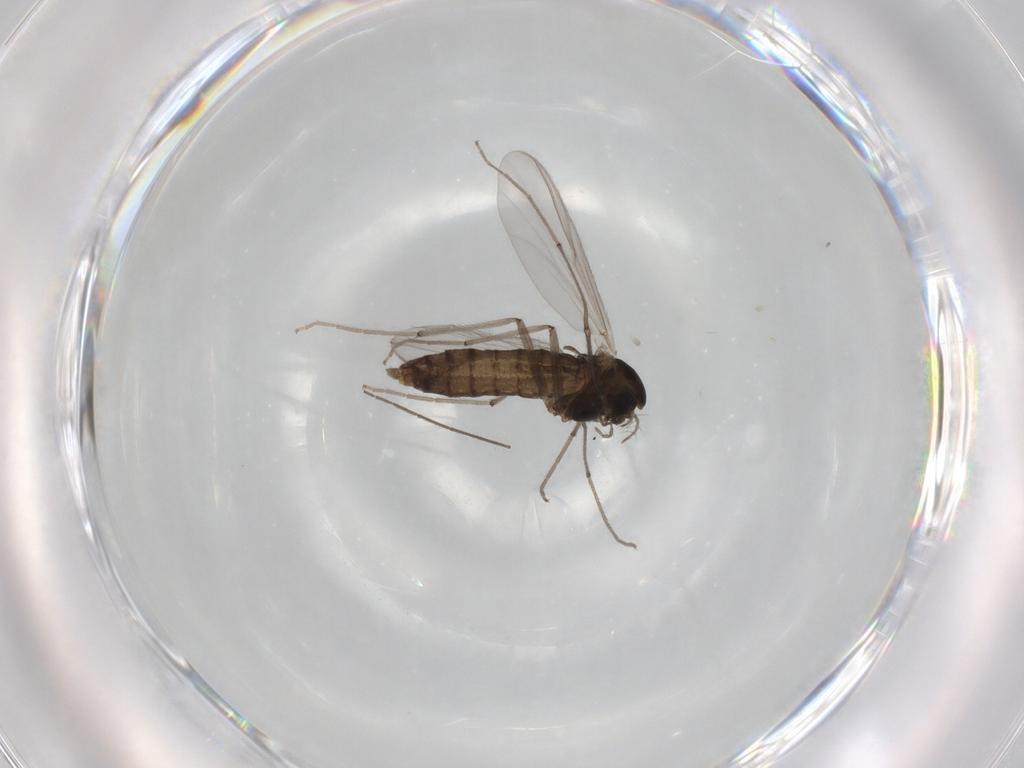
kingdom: Animalia
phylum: Arthropoda
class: Insecta
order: Diptera
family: Chironomidae
